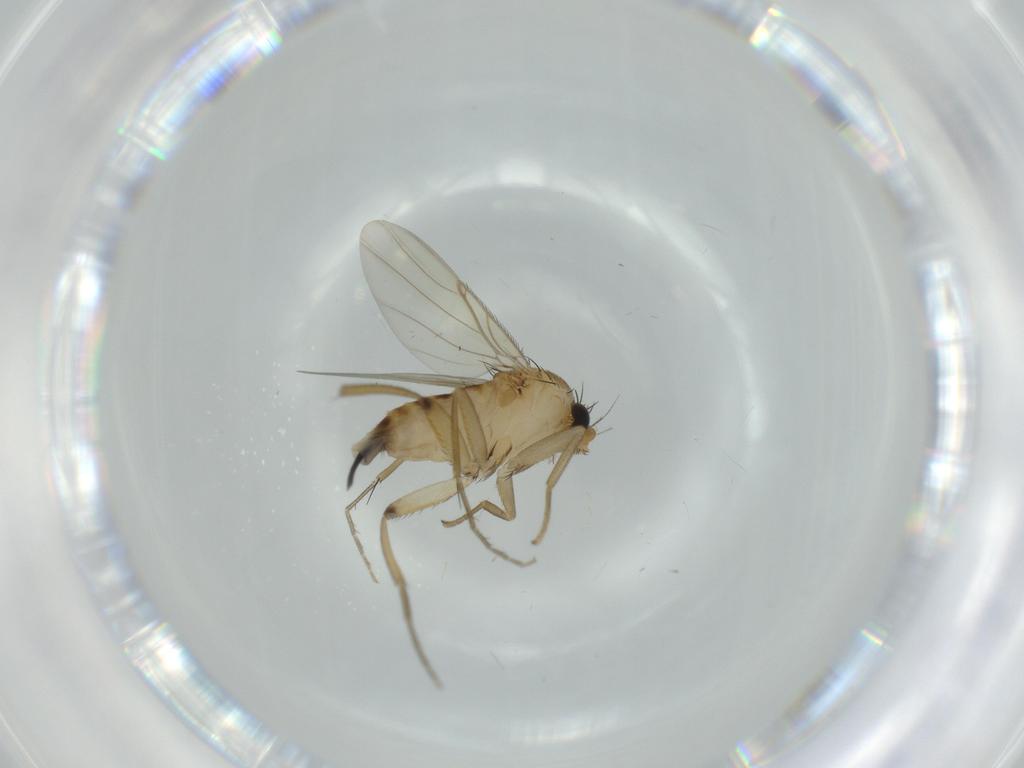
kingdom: Animalia
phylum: Arthropoda
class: Insecta
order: Diptera
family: Phoridae
